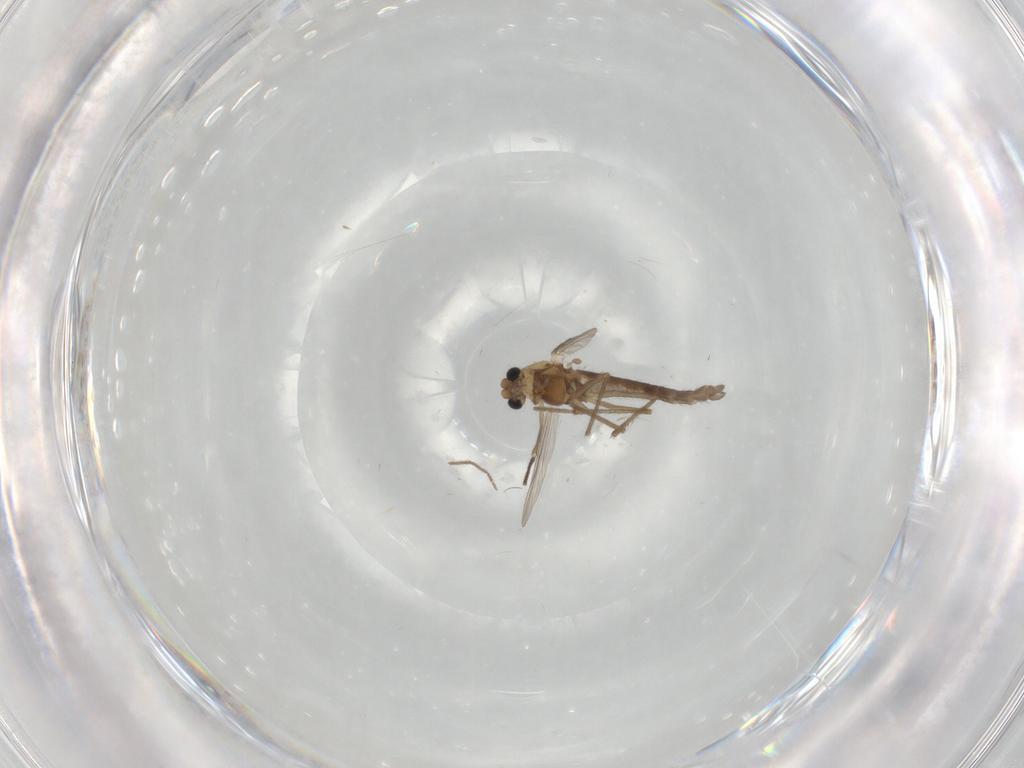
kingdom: Animalia
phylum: Arthropoda
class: Insecta
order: Diptera
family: Chironomidae
